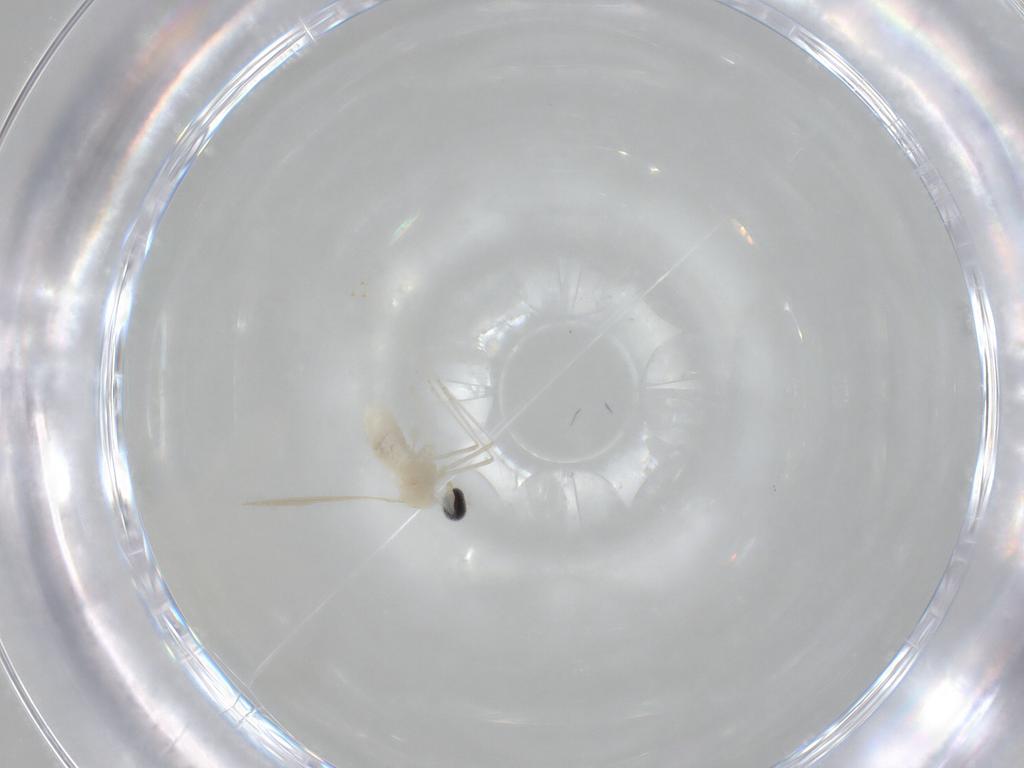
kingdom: Animalia
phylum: Arthropoda
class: Insecta
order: Diptera
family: Cecidomyiidae
